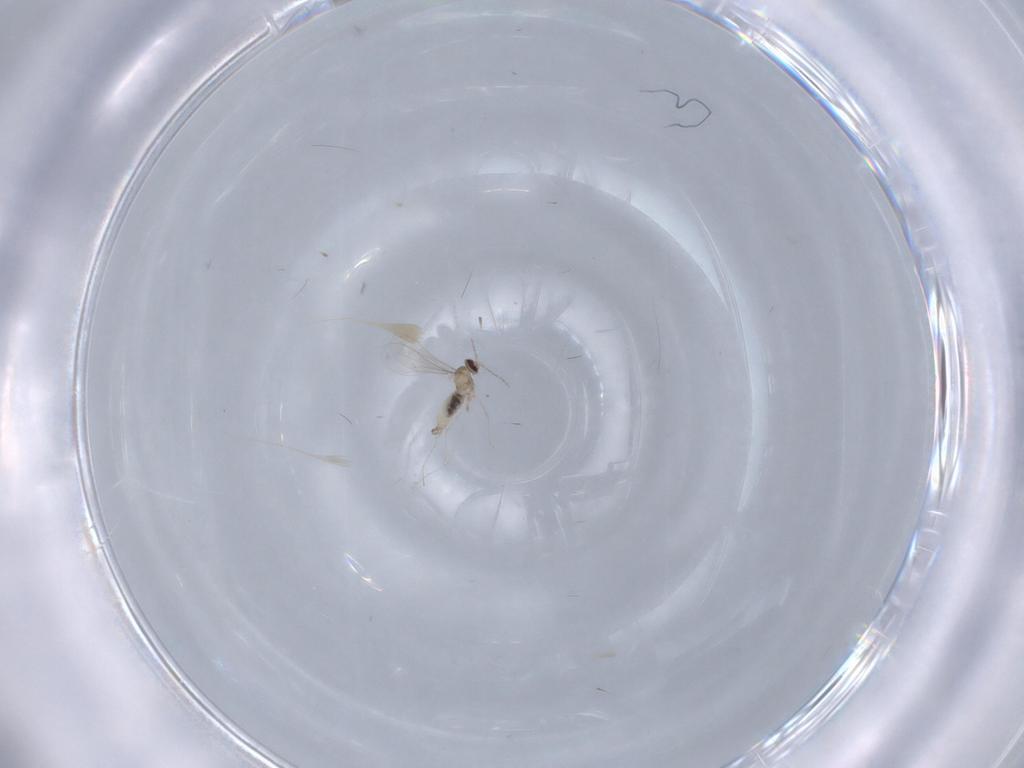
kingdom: Animalia
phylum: Arthropoda
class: Insecta
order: Diptera
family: Cecidomyiidae
